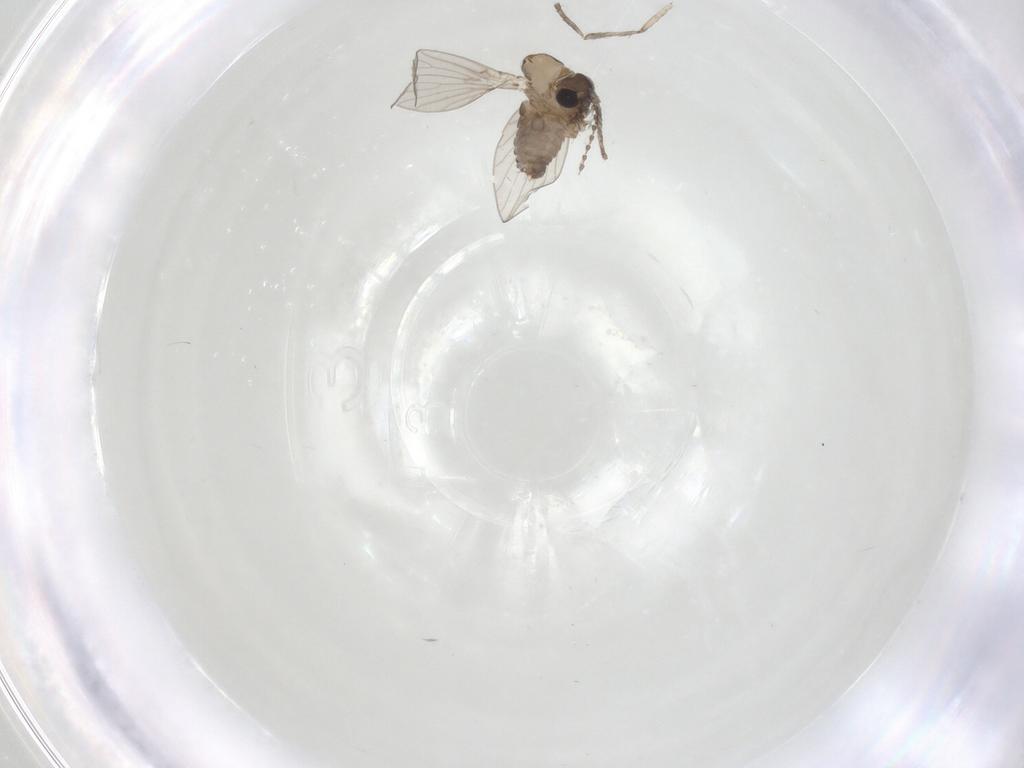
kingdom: Animalia
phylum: Arthropoda
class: Insecta
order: Diptera
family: Psychodidae
